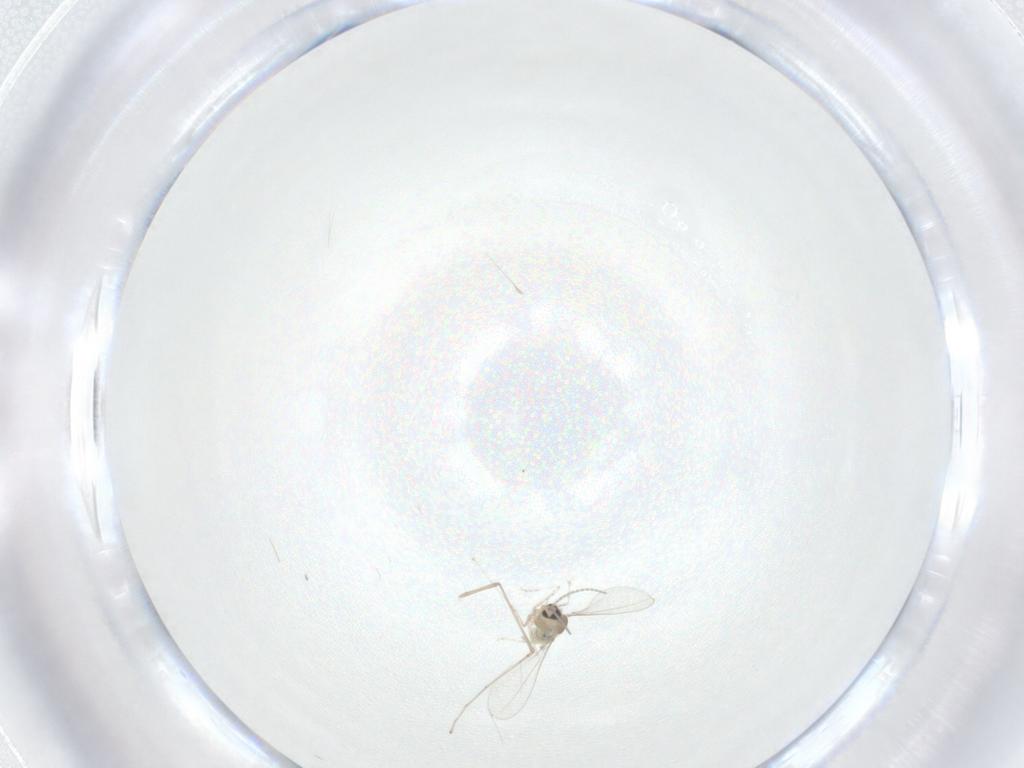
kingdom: Animalia
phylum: Arthropoda
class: Insecta
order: Diptera
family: Cecidomyiidae
